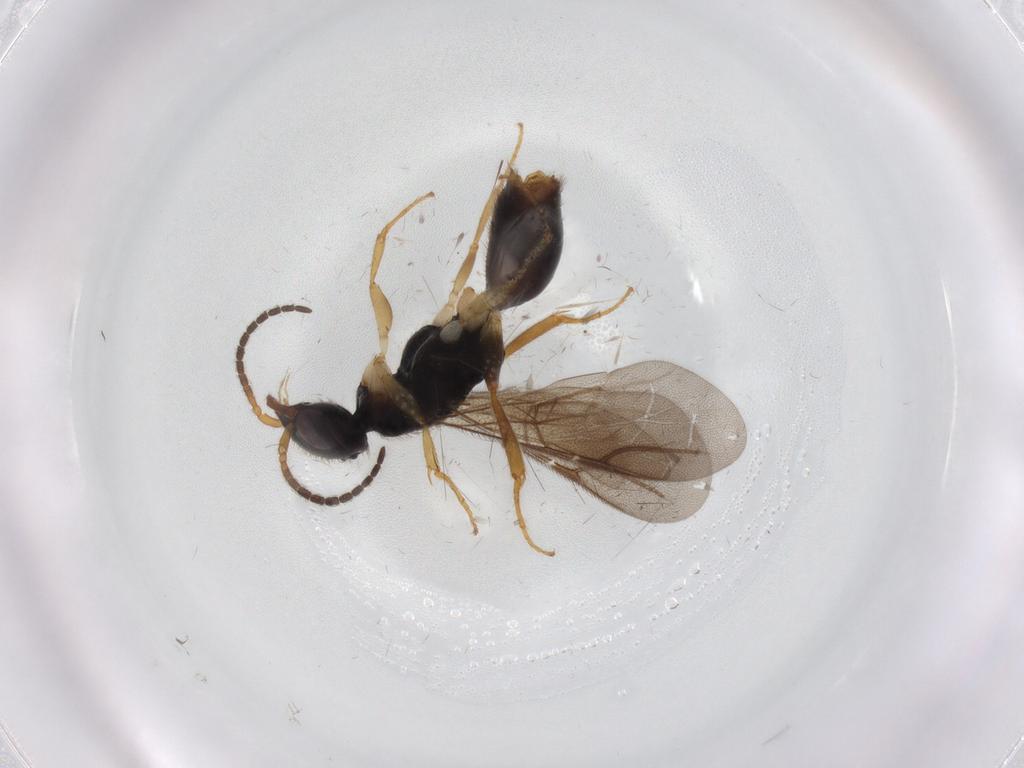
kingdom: Animalia
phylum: Arthropoda
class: Insecta
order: Hymenoptera
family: Bethylidae
